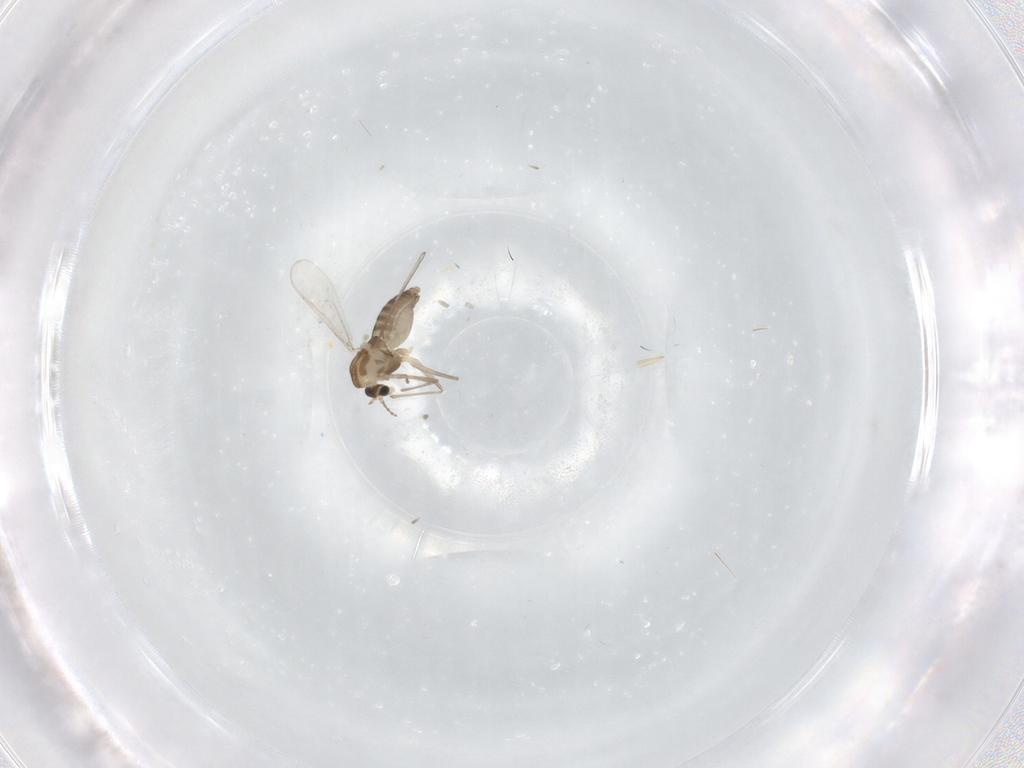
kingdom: Animalia
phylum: Arthropoda
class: Insecta
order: Diptera
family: Chironomidae
